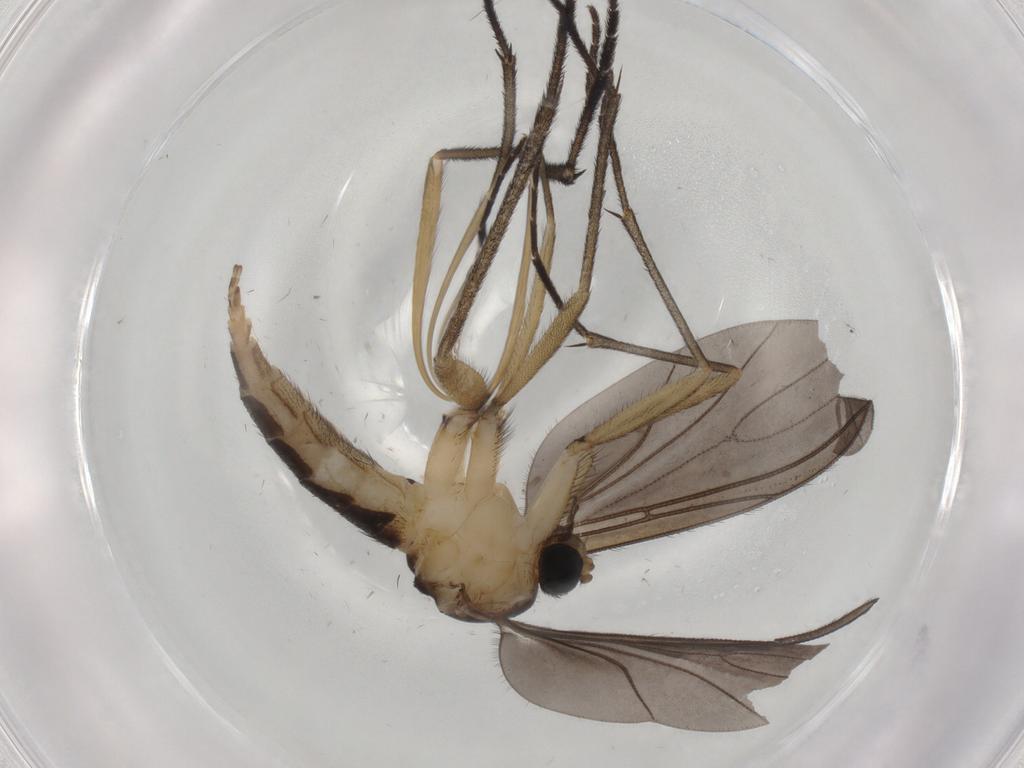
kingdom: Animalia
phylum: Arthropoda
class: Insecta
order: Diptera
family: Sciaridae
